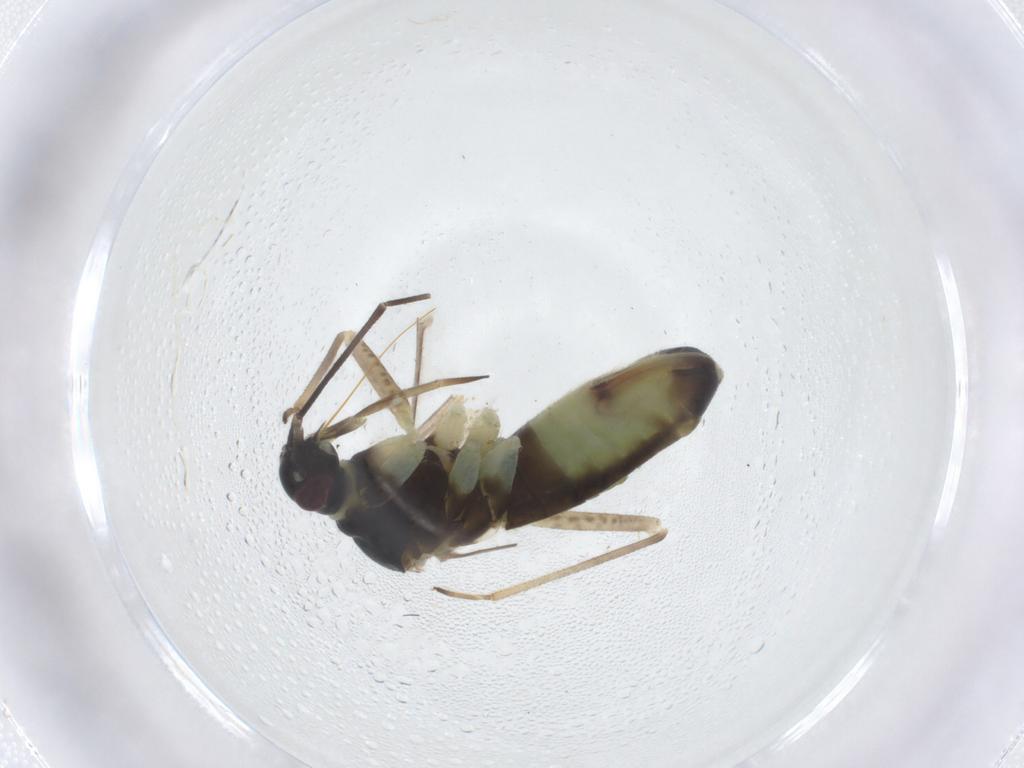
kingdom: Animalia
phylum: Arthropoda
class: Insecta
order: Hemiptera
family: Miridae
